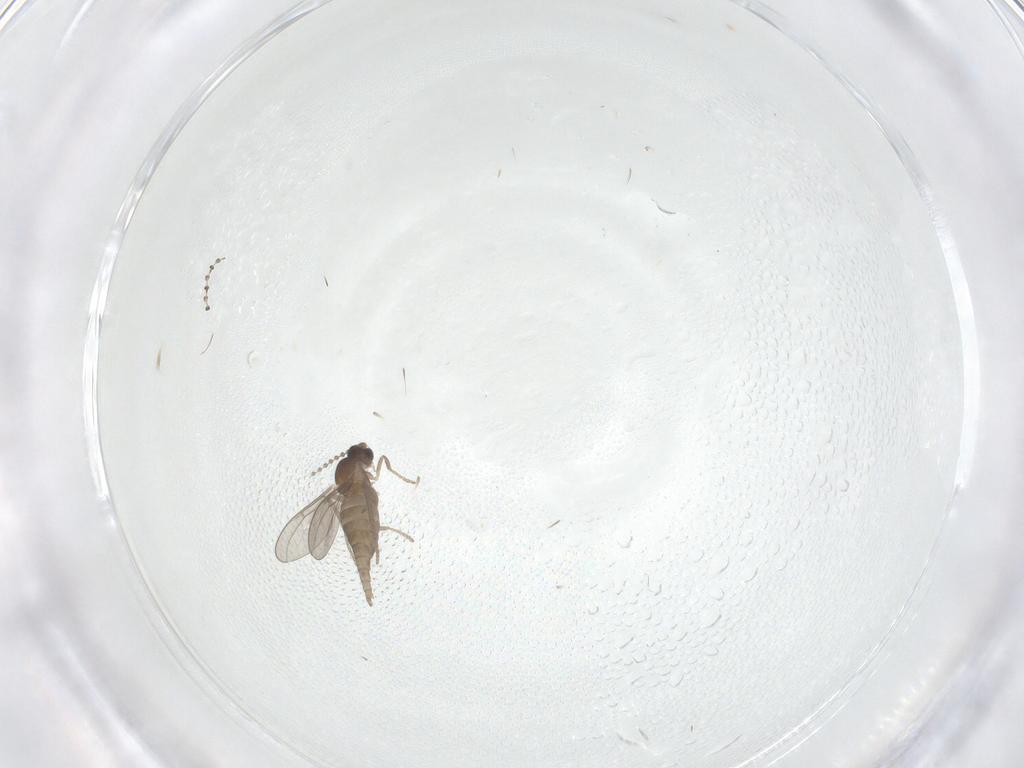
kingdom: Animalia
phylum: Arthropoda
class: Insecta
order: Diptera
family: Cecidomyiidae
